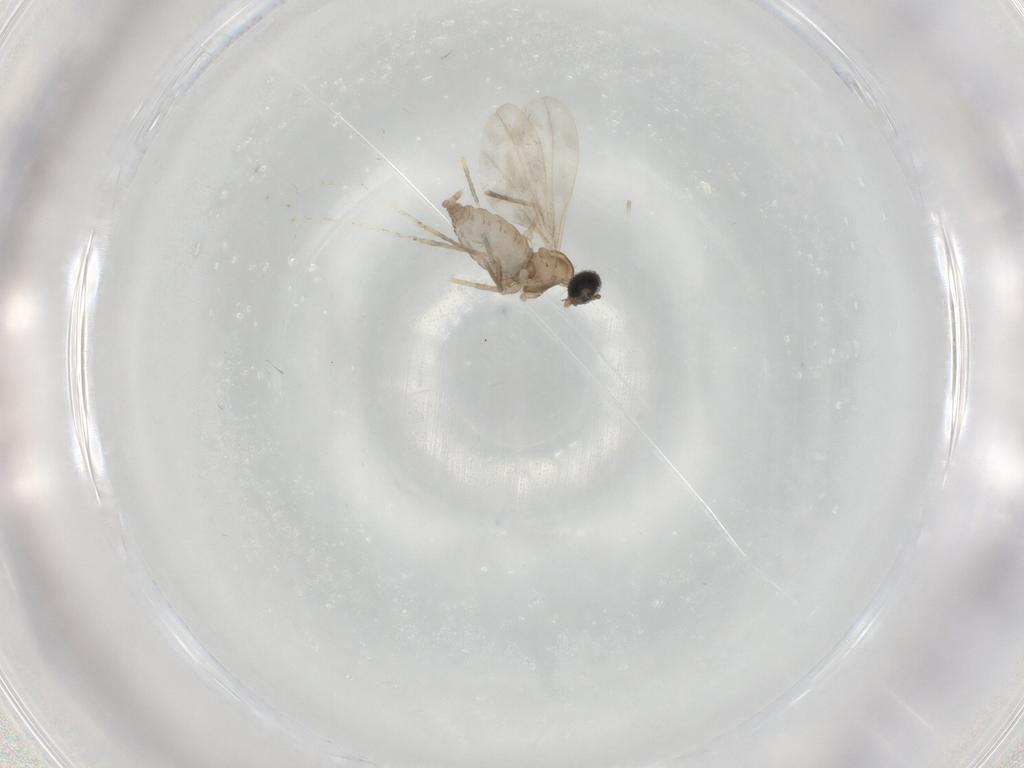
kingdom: Animalia
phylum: Arthropoda
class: Insecta
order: Diptera
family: Cecidomyiidae
